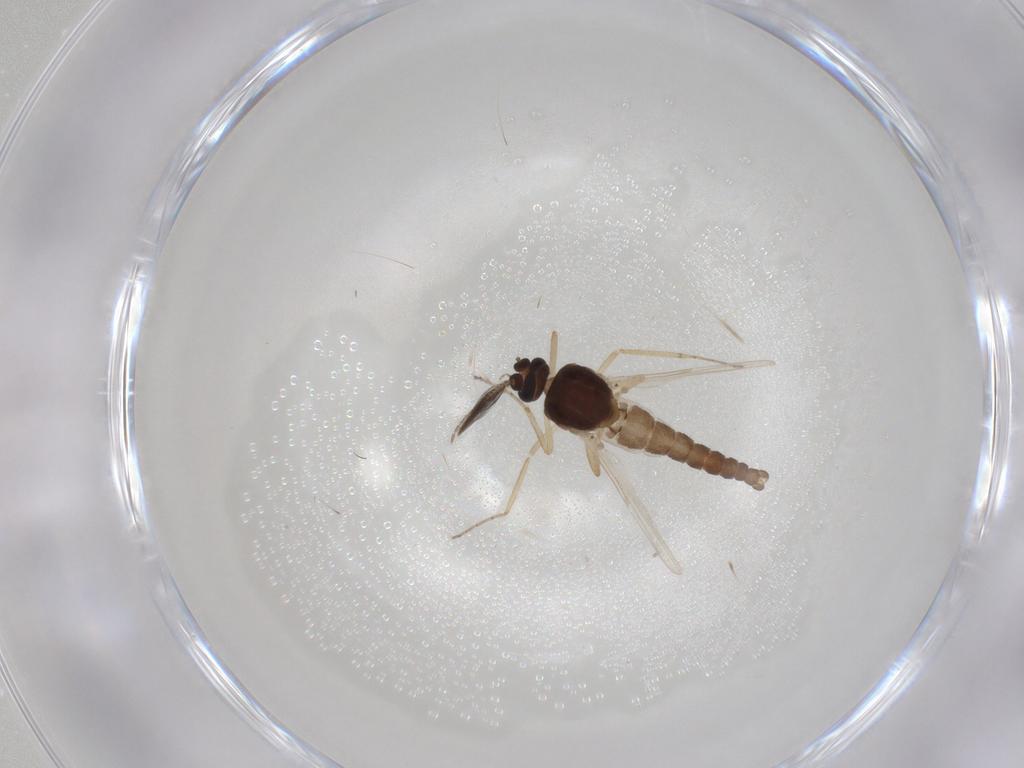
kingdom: Animalia
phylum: Arthropoda
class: Insecta
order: Diptera
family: Ceratopogonidae
